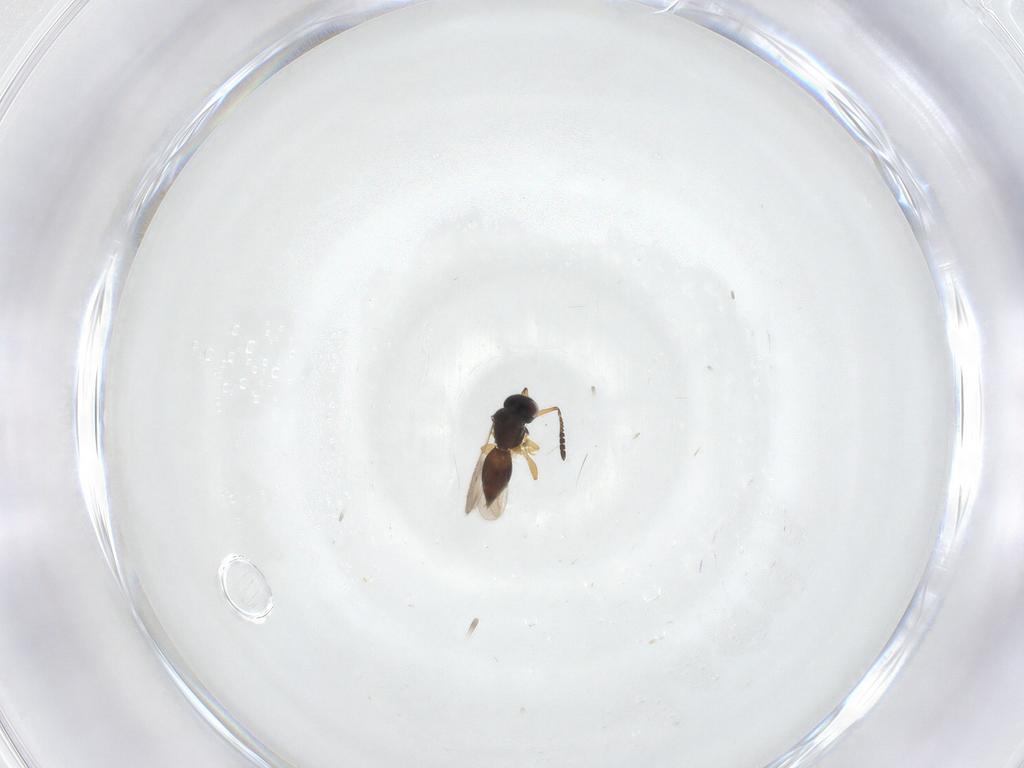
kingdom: Animalia
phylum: Arthropoda
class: Insecta
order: Hymenoptera
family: Ceraphronidae
